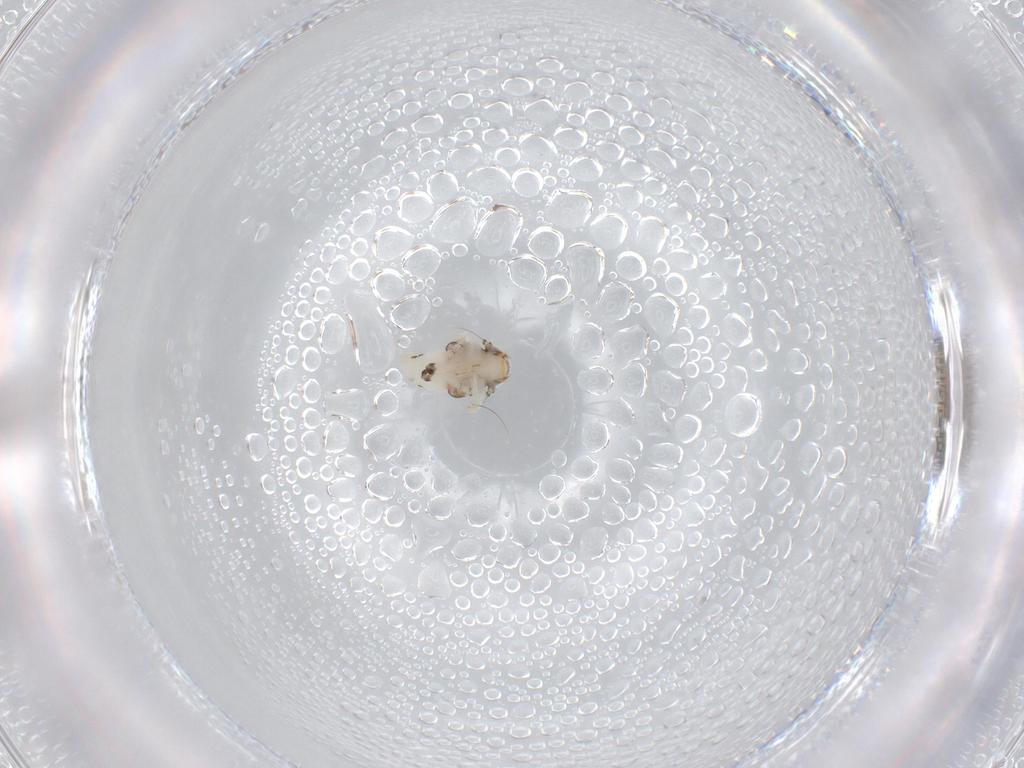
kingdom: Animalia
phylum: Arthropoda
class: Insecta
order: Hemiptera
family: Nogodinidae
